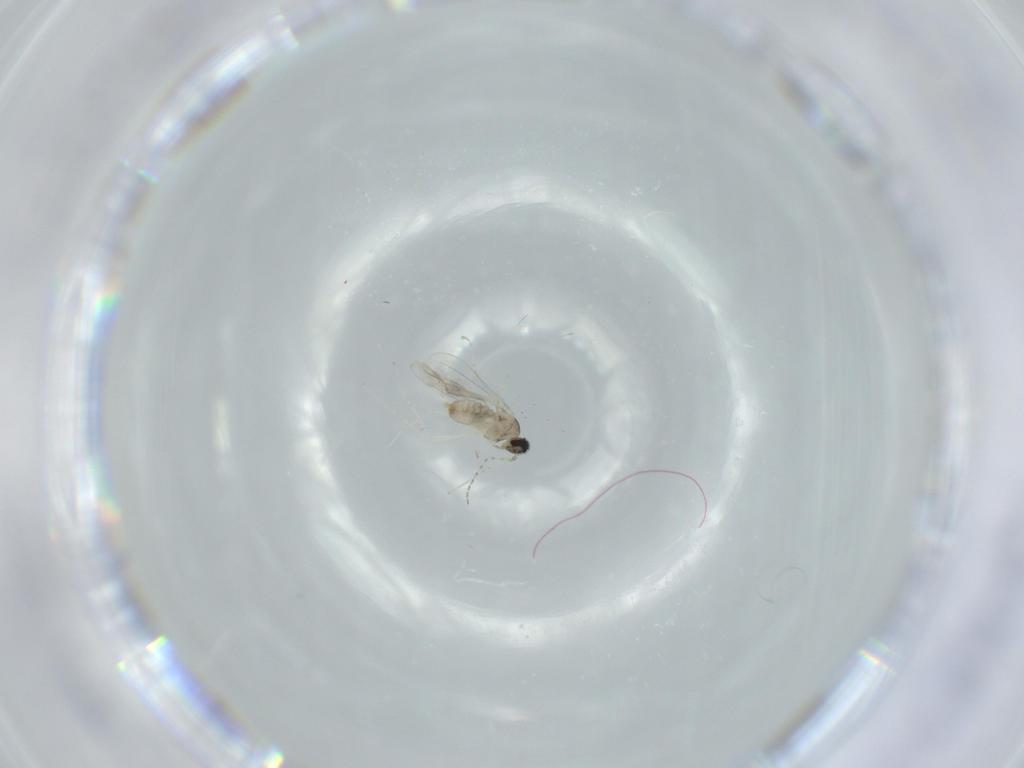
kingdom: Animalia
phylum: Arthropoda
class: Insecta
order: Diptera
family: Cecidomyiidae
